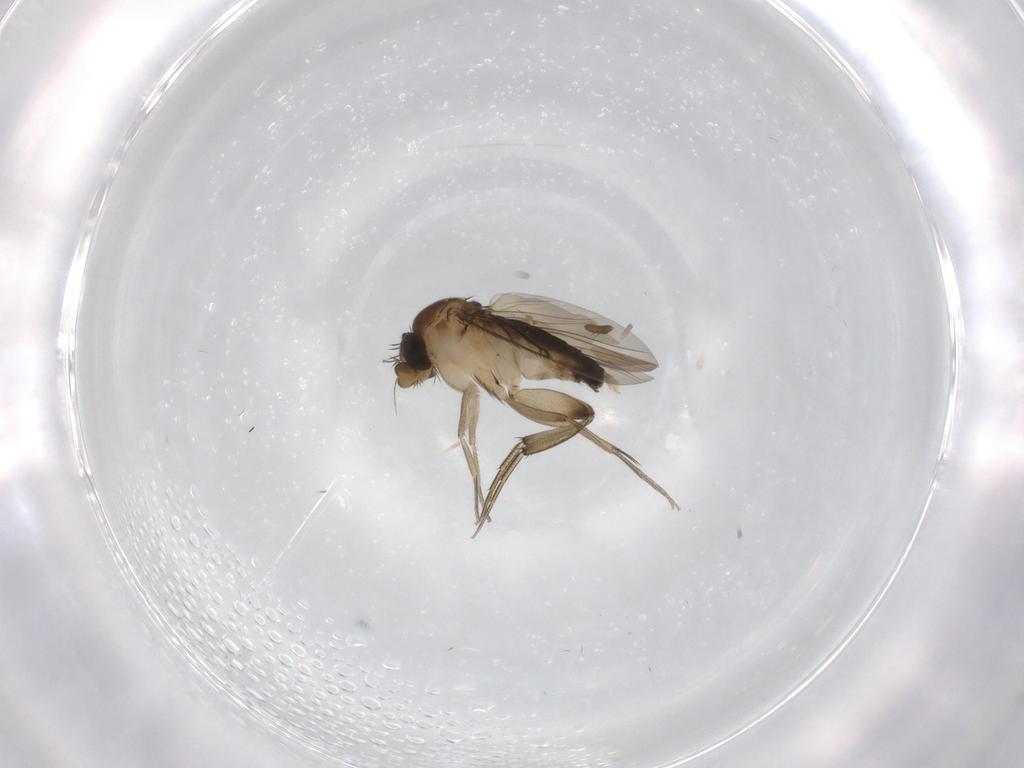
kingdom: Animalia
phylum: Arthropoda
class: Insecta
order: Diptera
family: Phoridae
